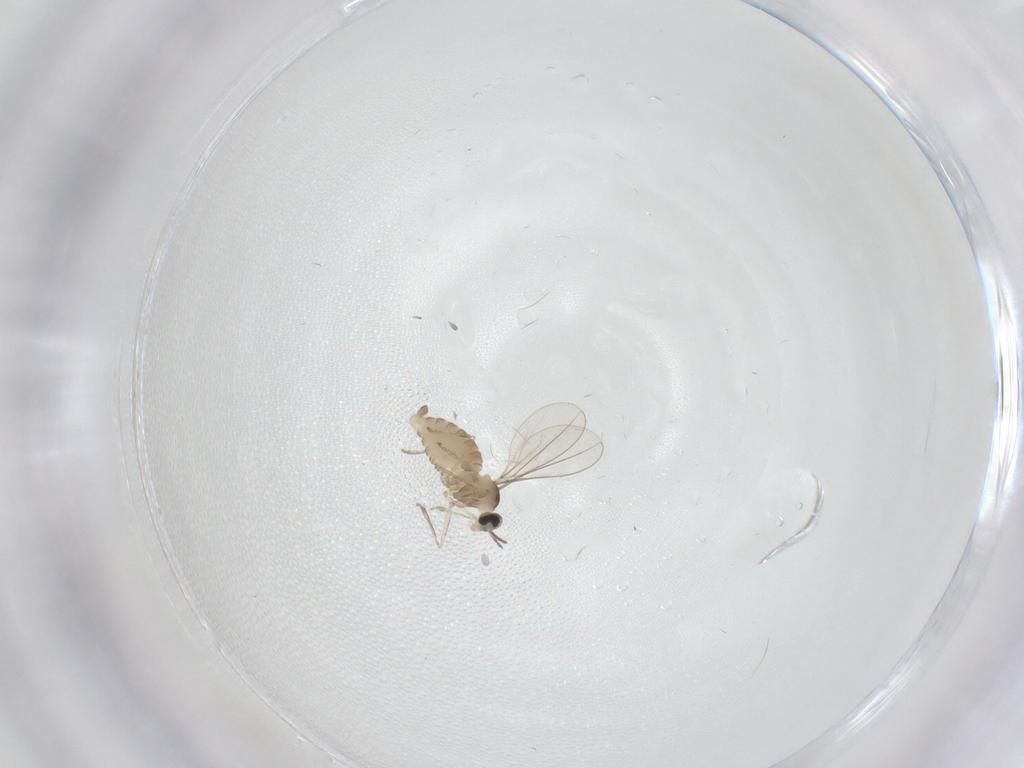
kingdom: Animalia
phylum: Arthropoda
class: Insecta
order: Diptera
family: Cecidomyiidae
